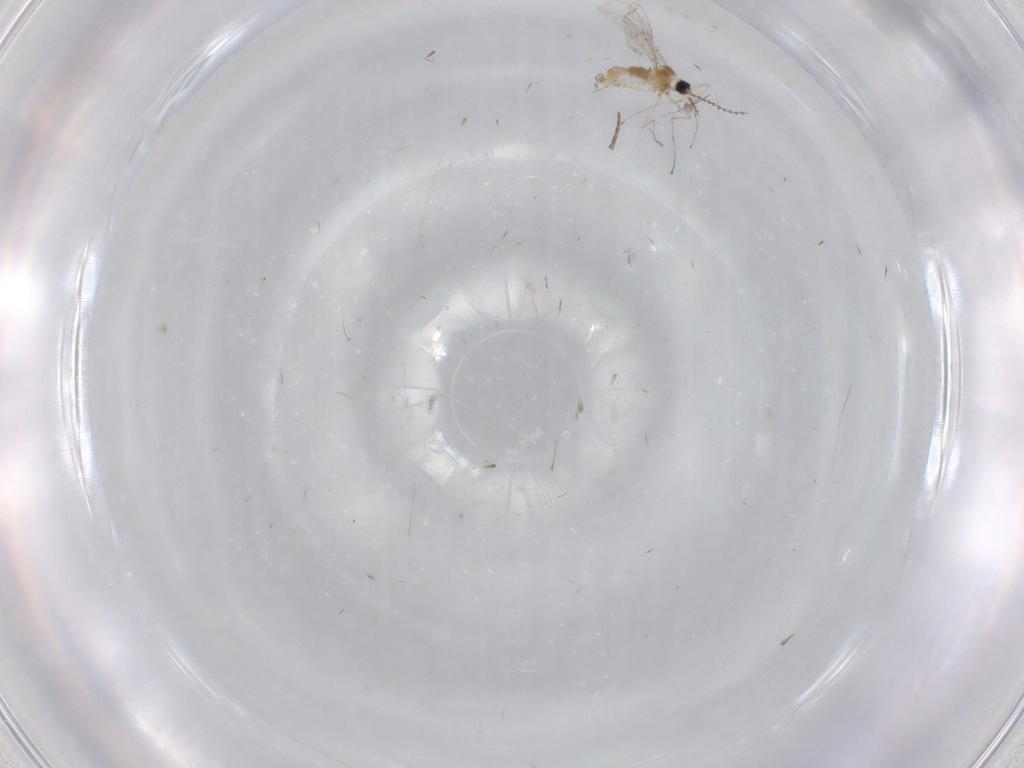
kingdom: Animalia
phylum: Arthropoda
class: Insecta
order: Diptera
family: Cecidomyiidae
